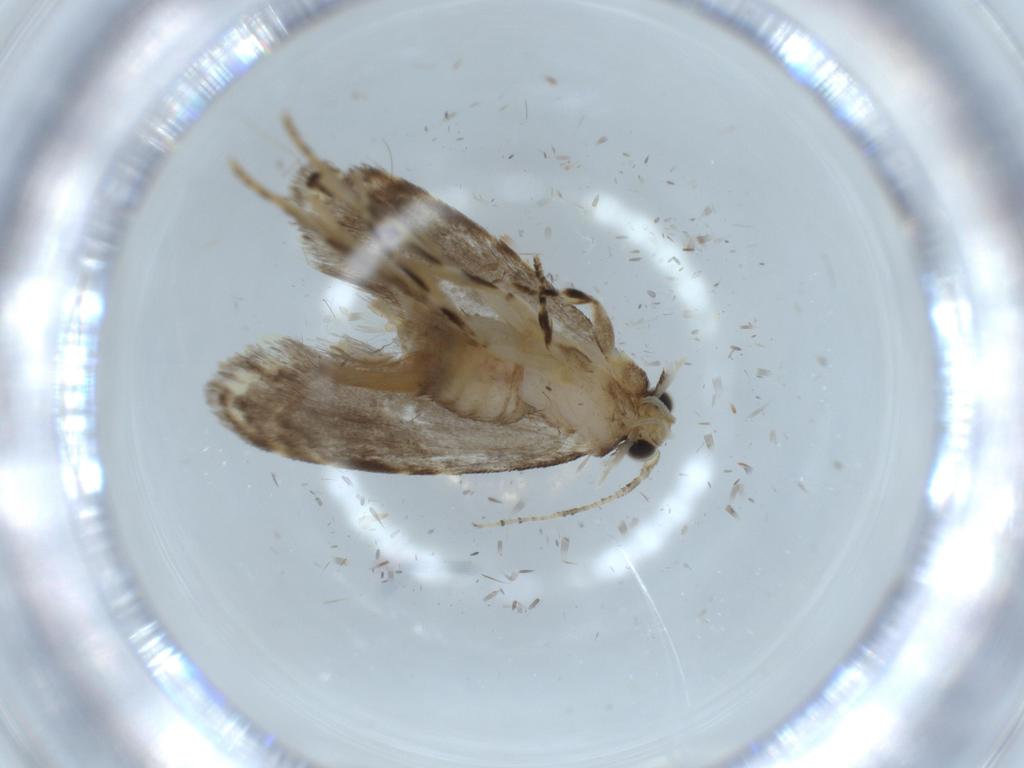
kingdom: Animalia
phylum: Arthropoda
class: Insecta
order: Lepidoptera
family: Tineidae
